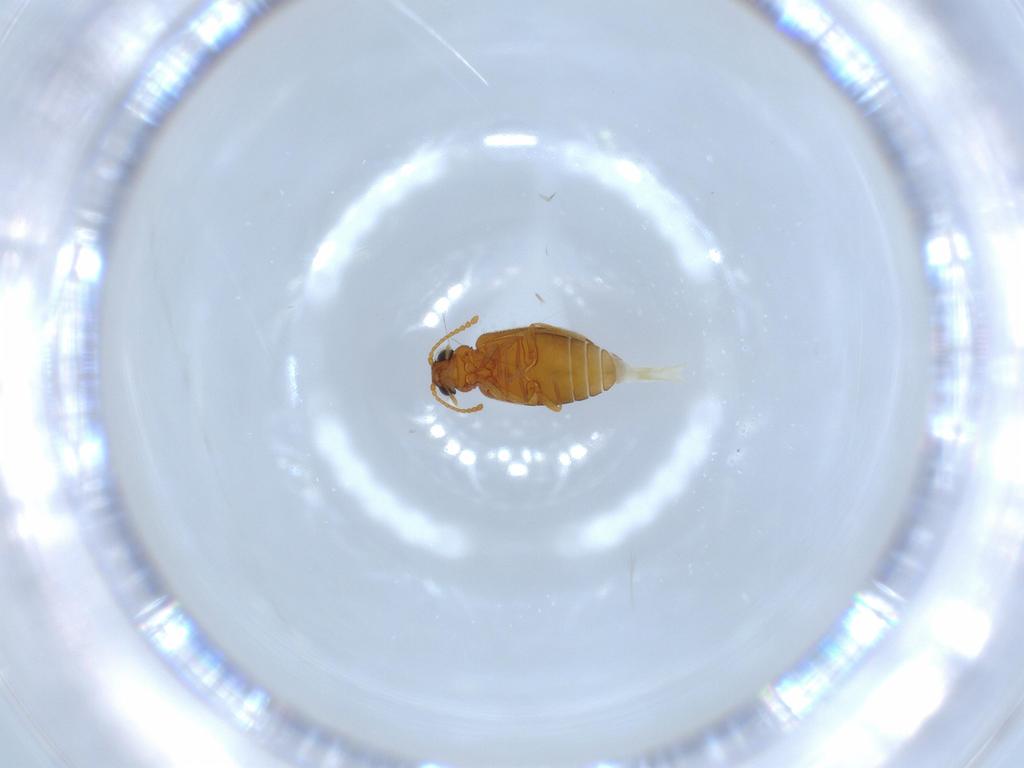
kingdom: Animalia
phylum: Arthropoda
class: Insecta
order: Coleoptera
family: Aderidae
